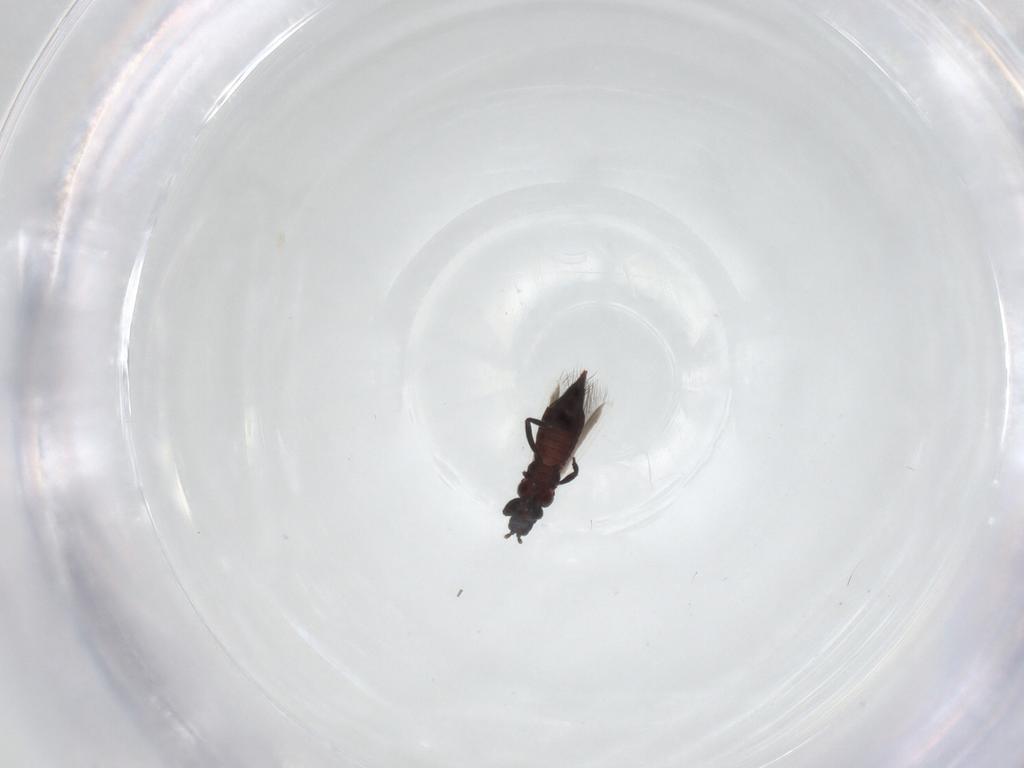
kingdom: Animalia
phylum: Arthropoda
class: Insecta
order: Thysanoptera
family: Aeolothripidae
